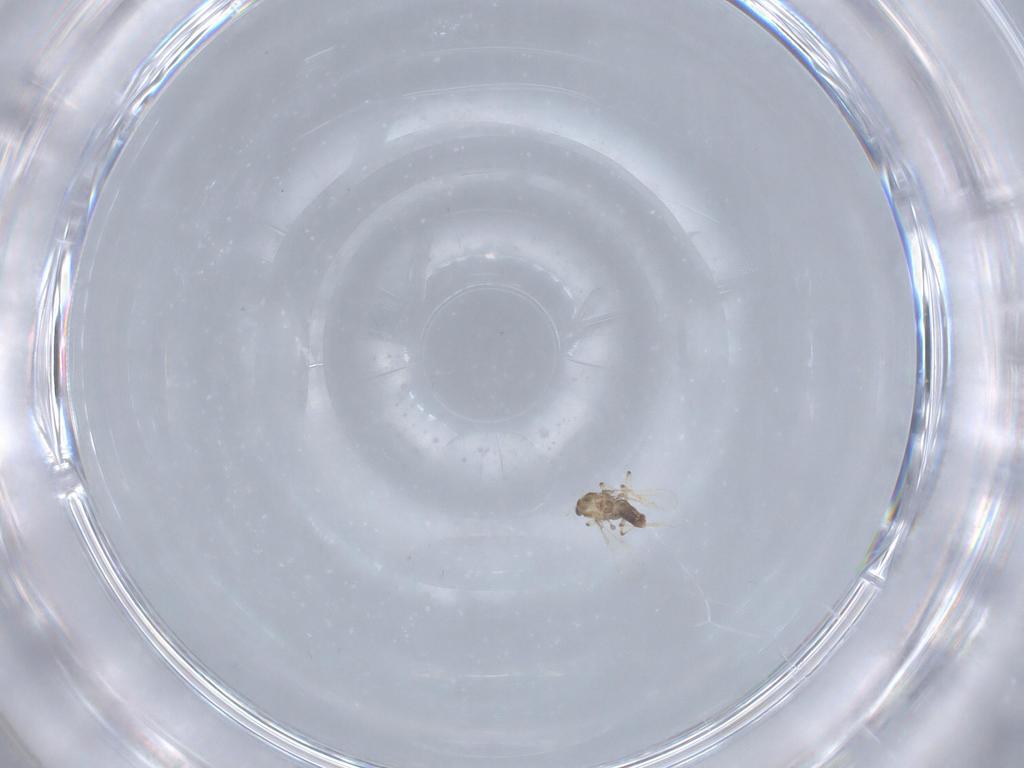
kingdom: Animalia
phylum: Arthropoda
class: Insecta
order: Diptera
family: Chironomidae
